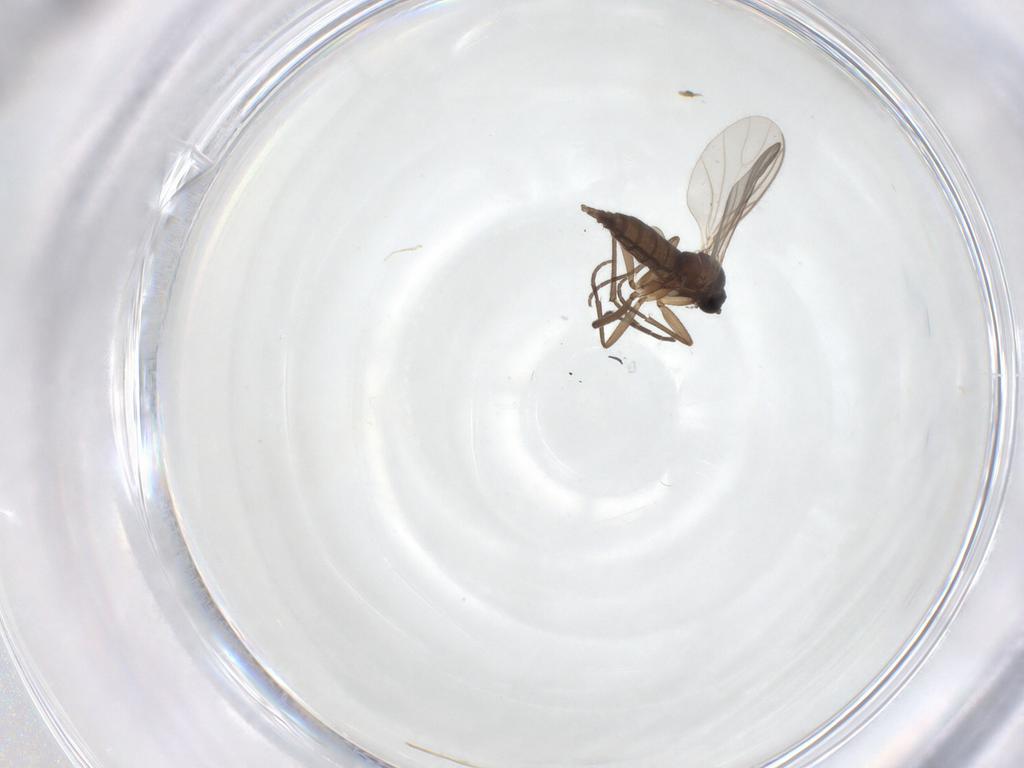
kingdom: Animalia
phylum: Arthropoda
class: Insecta
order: Diptera
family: Sciaridae
